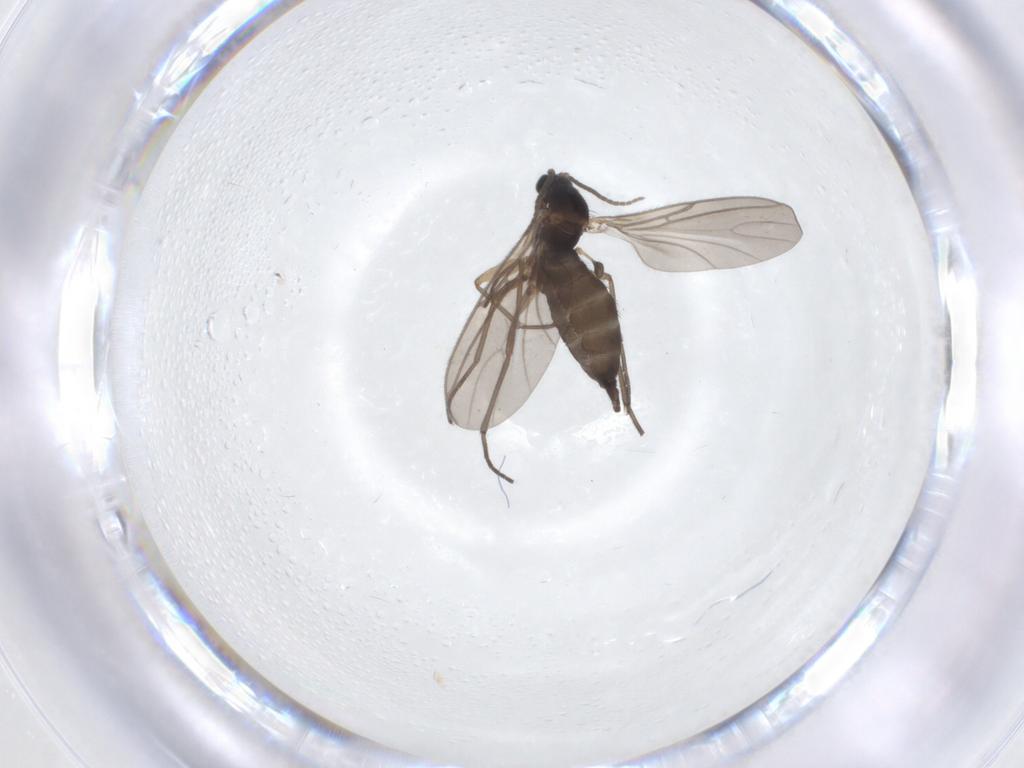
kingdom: Animalia
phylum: Arthropoda
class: Insecta
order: Diptera
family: Sciaridae
